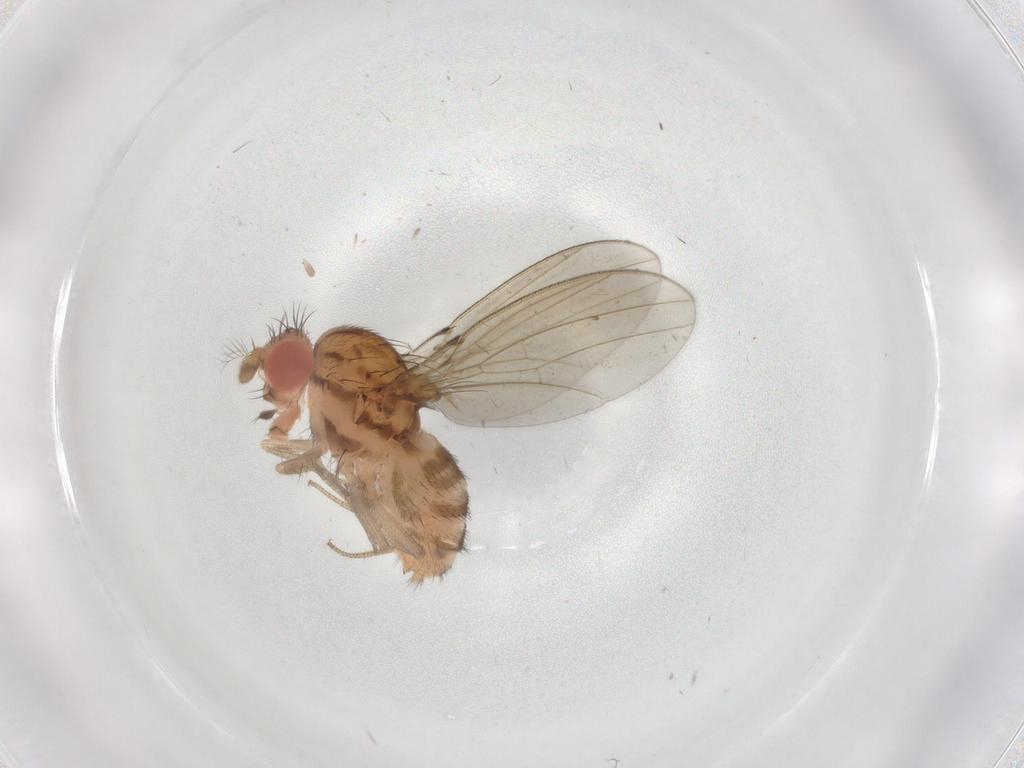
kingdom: Animalia
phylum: Arthropoda
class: Insecta
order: Diptera
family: Drosophilidae
